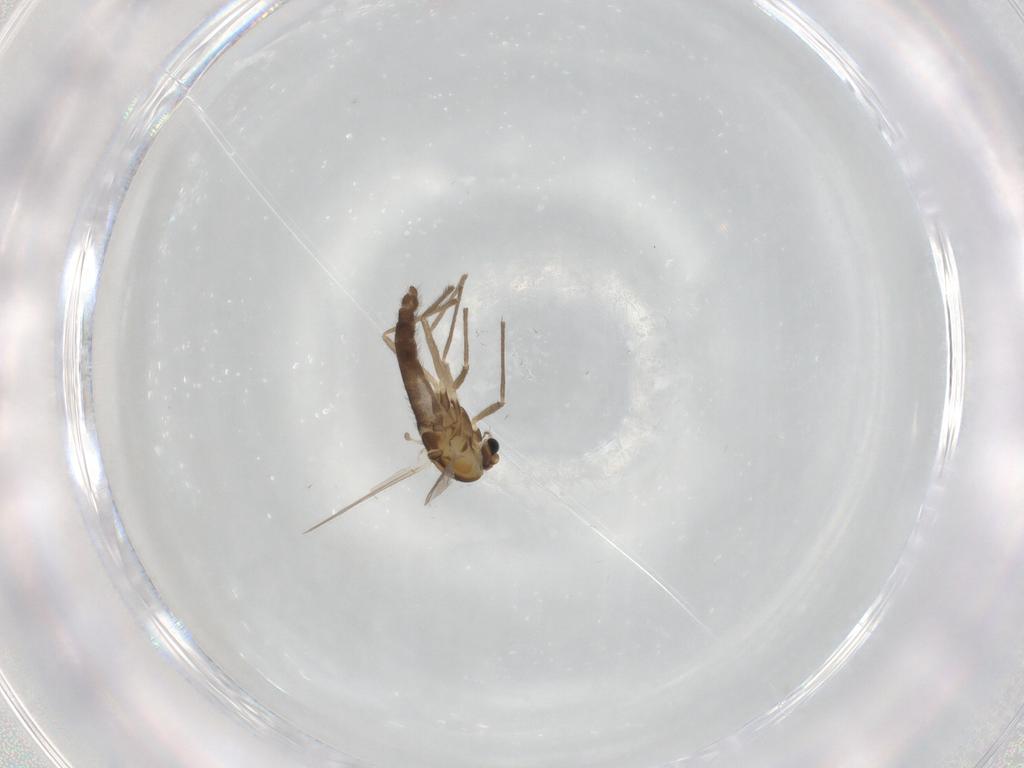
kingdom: Animalia
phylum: Arthropoda
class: Insecta
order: Diptera
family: Chironomidae
